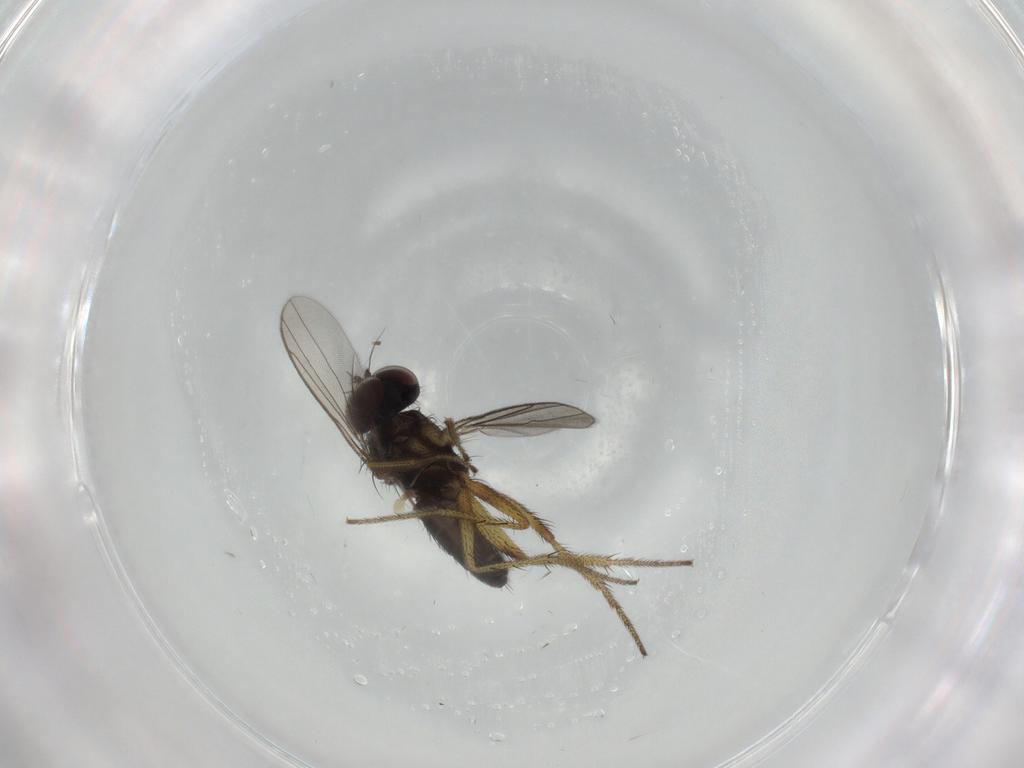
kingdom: Animalia
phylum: Arthropoda
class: Insecta
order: Diptera
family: Dolichopodidae
